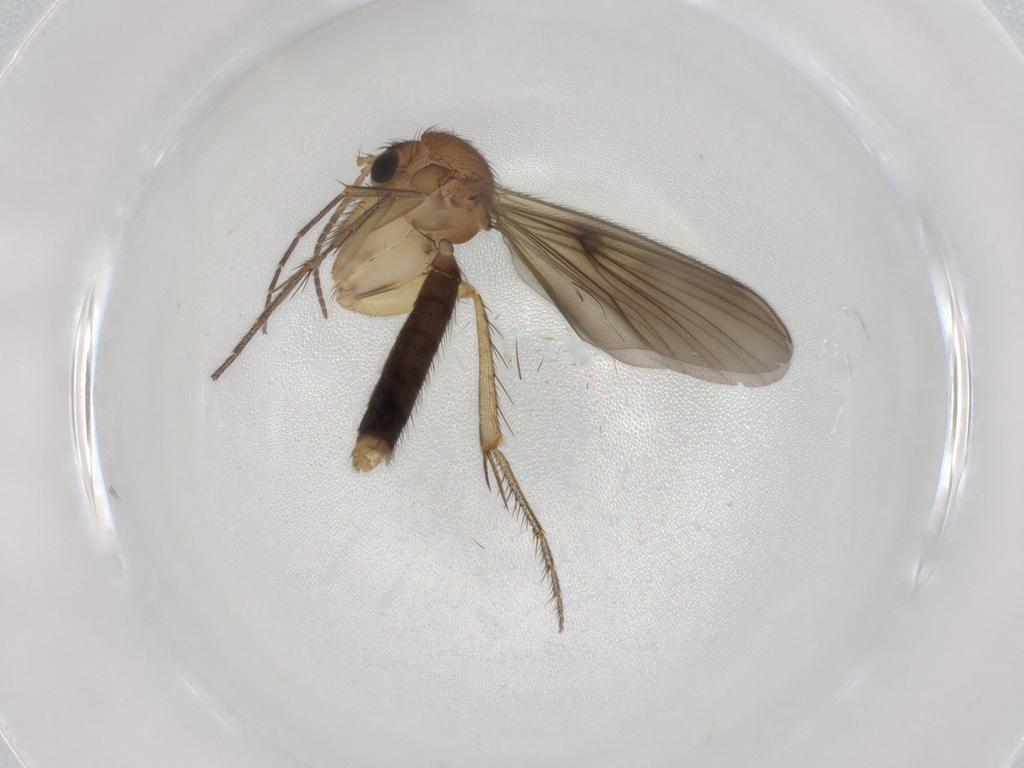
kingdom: Animalia
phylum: Arthropoda
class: Insecta
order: Diptera
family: Mycetophilidae
